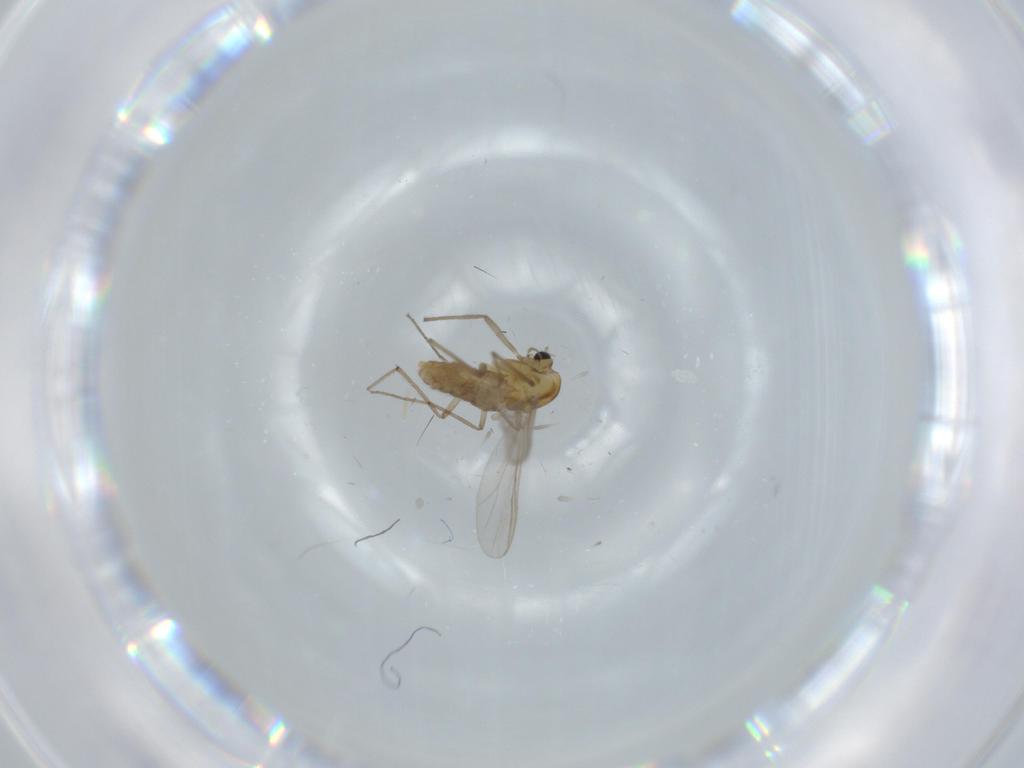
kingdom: Animalia
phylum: Arthropoda
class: Insecta
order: Diptera
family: Chironomidae
